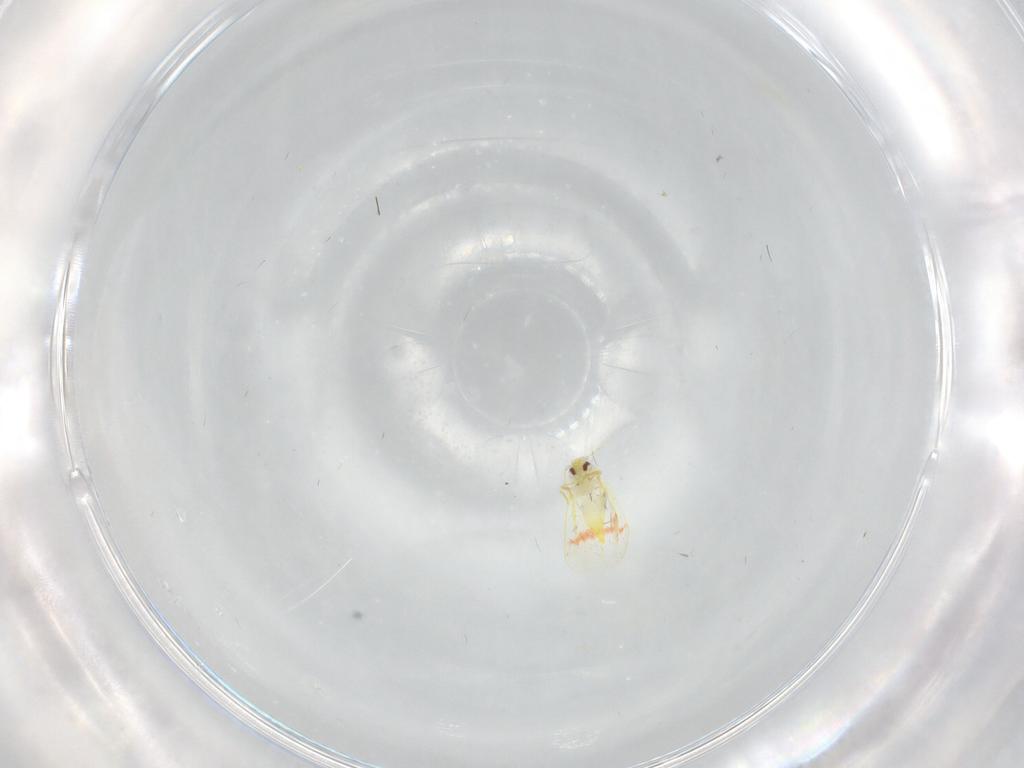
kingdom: Animalia
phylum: Arthropoda
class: Insecta
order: Hemiptera
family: Aleyrodidae
